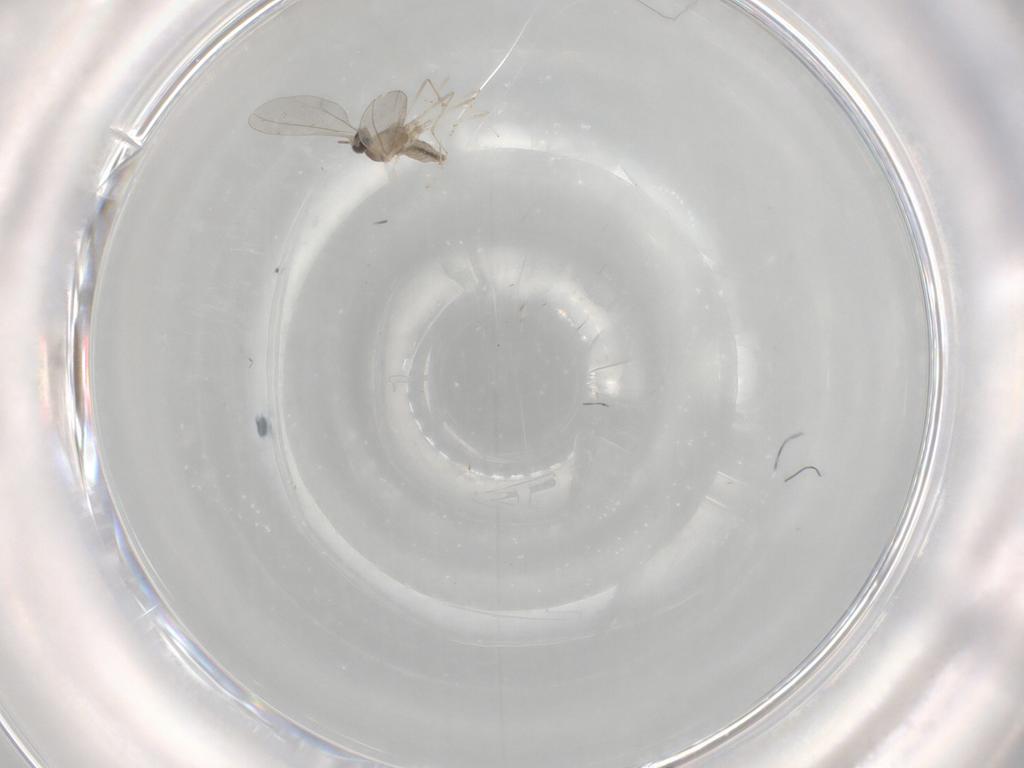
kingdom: Animalia
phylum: Arthropoda
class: Insecta
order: Diptera
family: Cecidomyiidae
